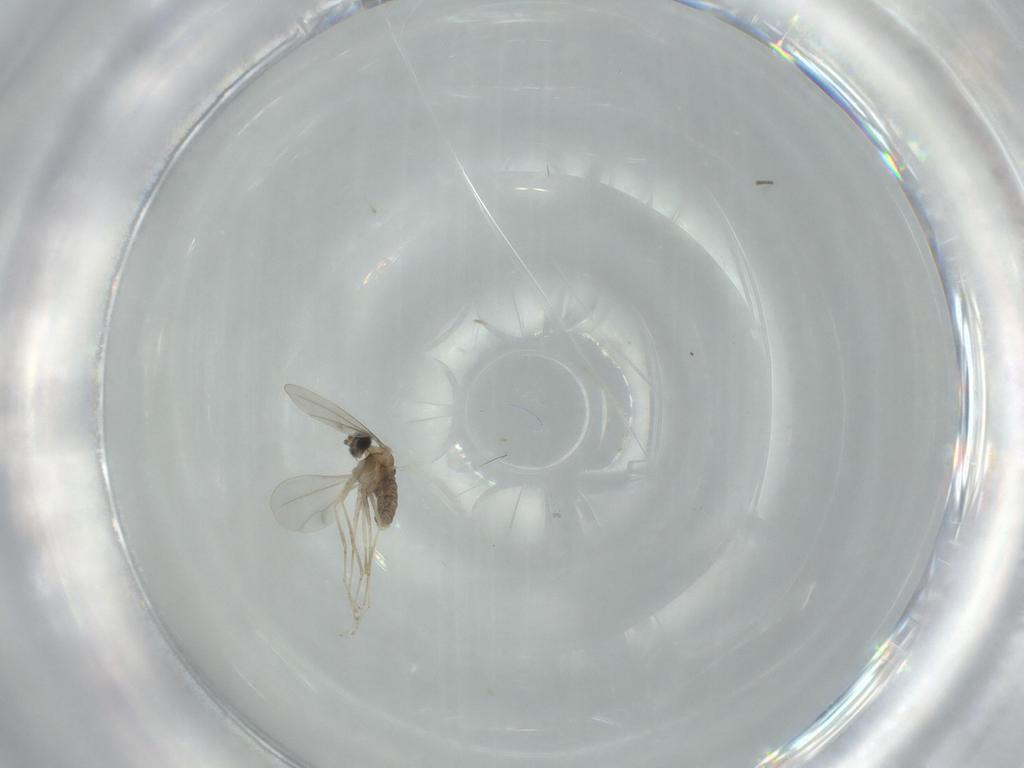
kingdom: Animalia
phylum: Arthropoda
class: Insecta
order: Diptera
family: Cecidomyiidae
